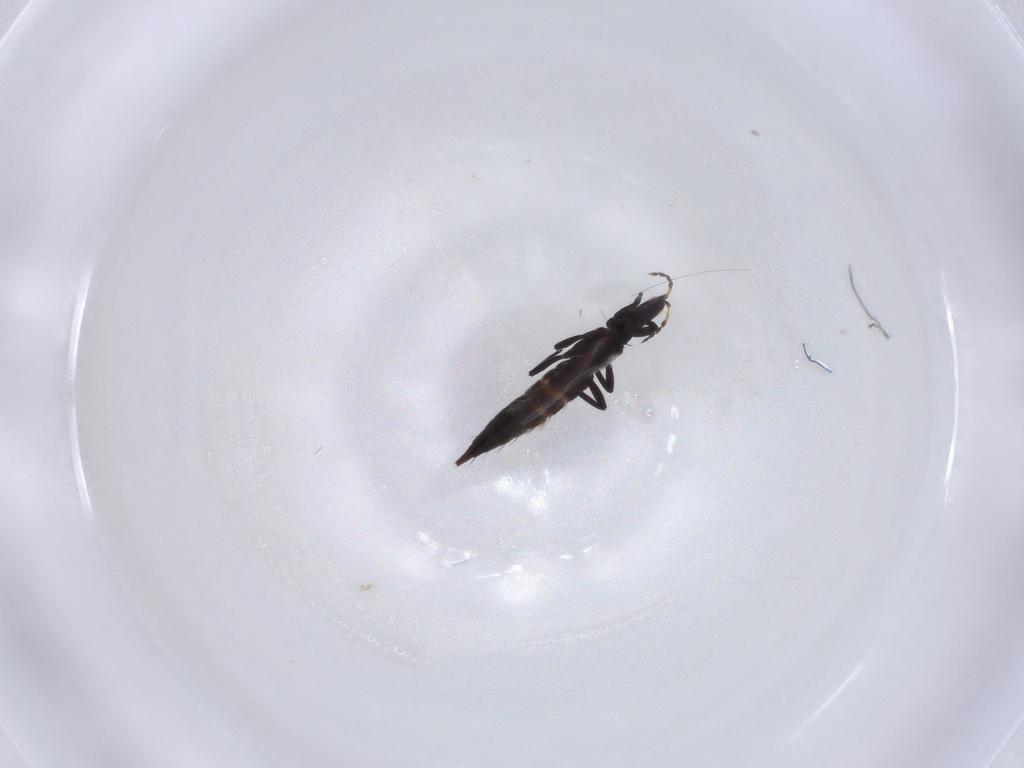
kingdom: Animalia
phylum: Arthropoda
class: Insecta
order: Thysanoptera
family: Phlaeothripidae
